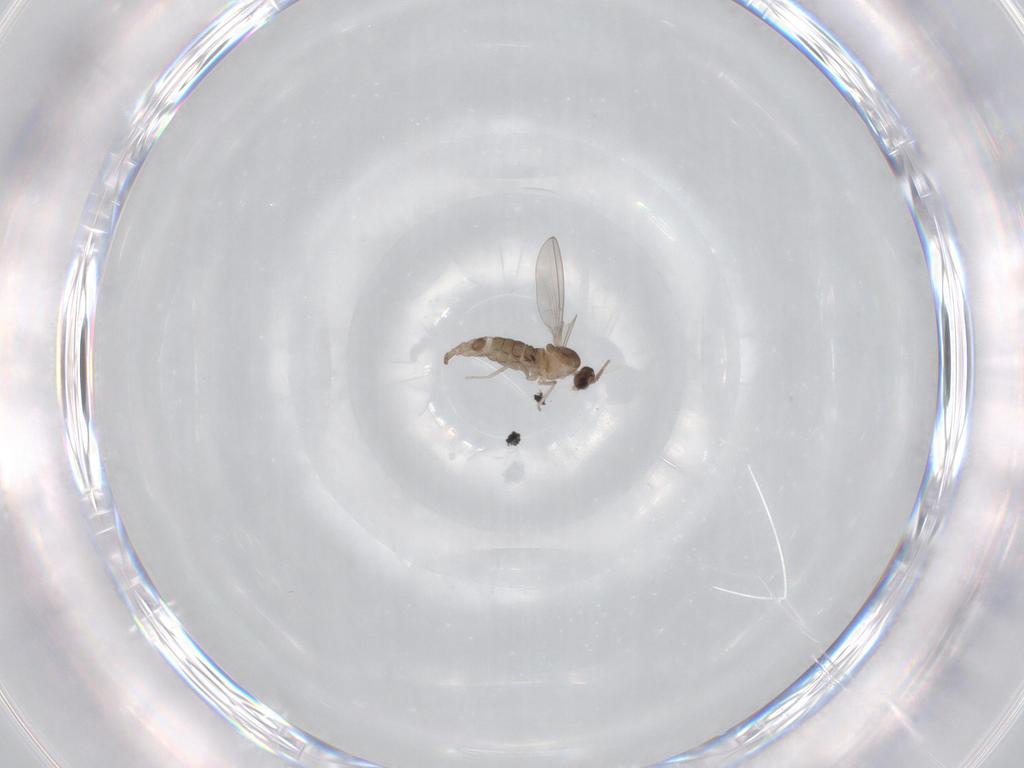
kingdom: Animalia
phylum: Arthropoda
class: Insecta
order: Diptera
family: Cecidomyiidae
